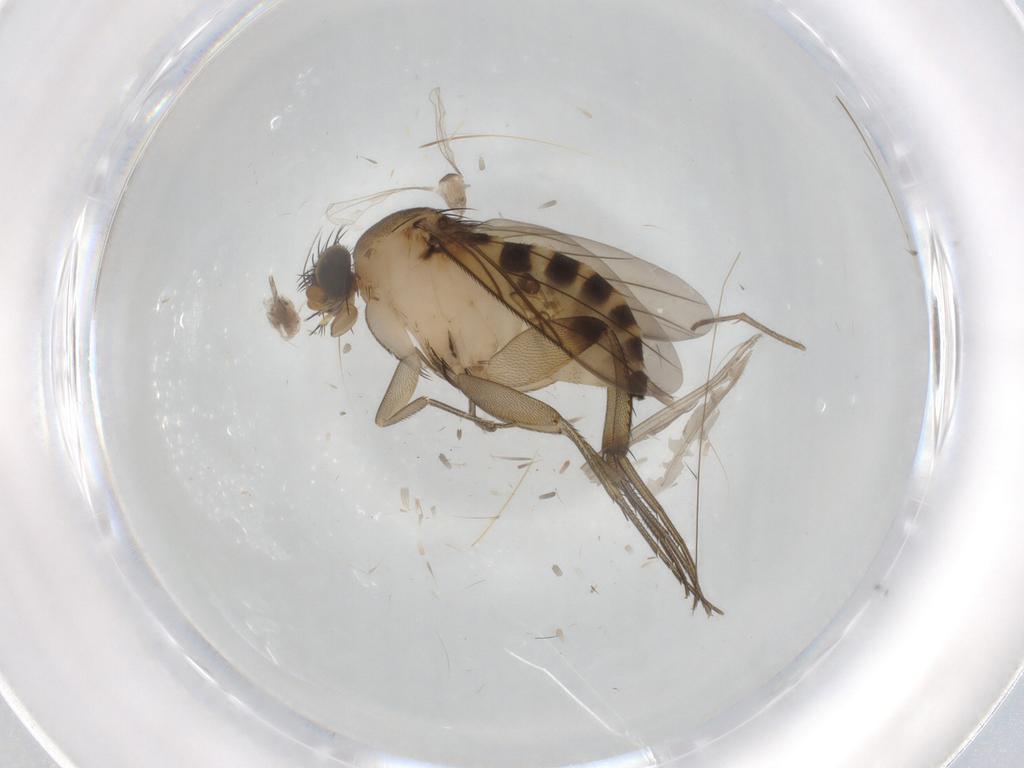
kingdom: Animalia
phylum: Arthropoda
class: Insecta
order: Diptera
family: Phoridae
